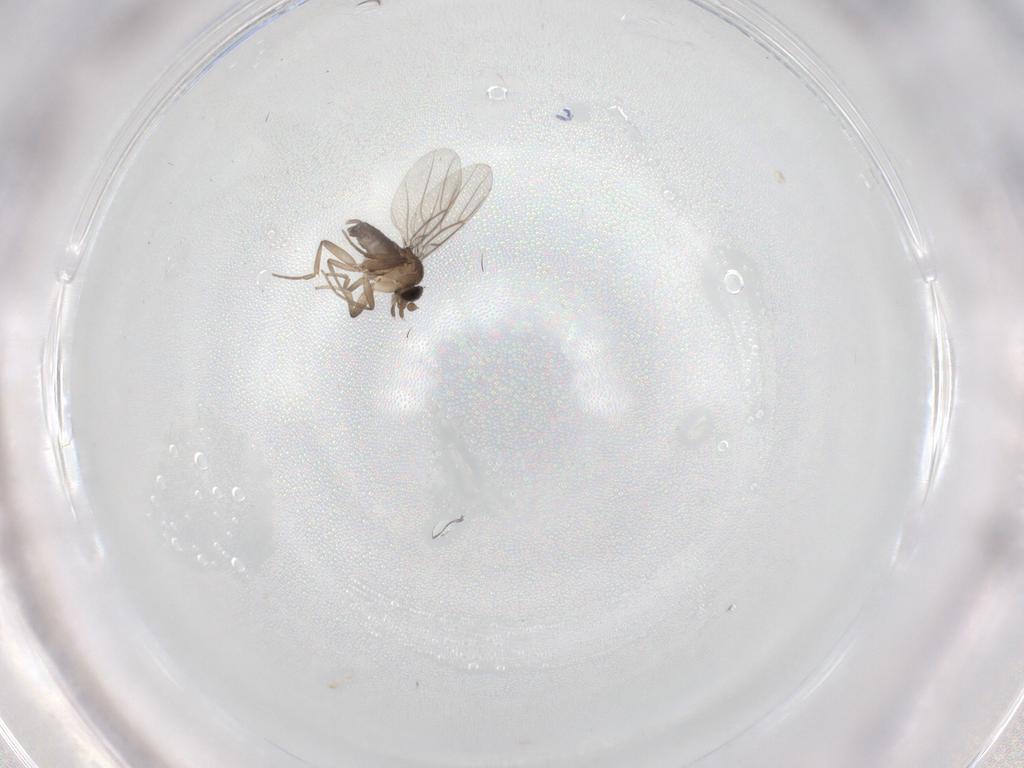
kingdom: Animalia
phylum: Arthropoda
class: Insecta
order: Diptera
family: Phoridae
